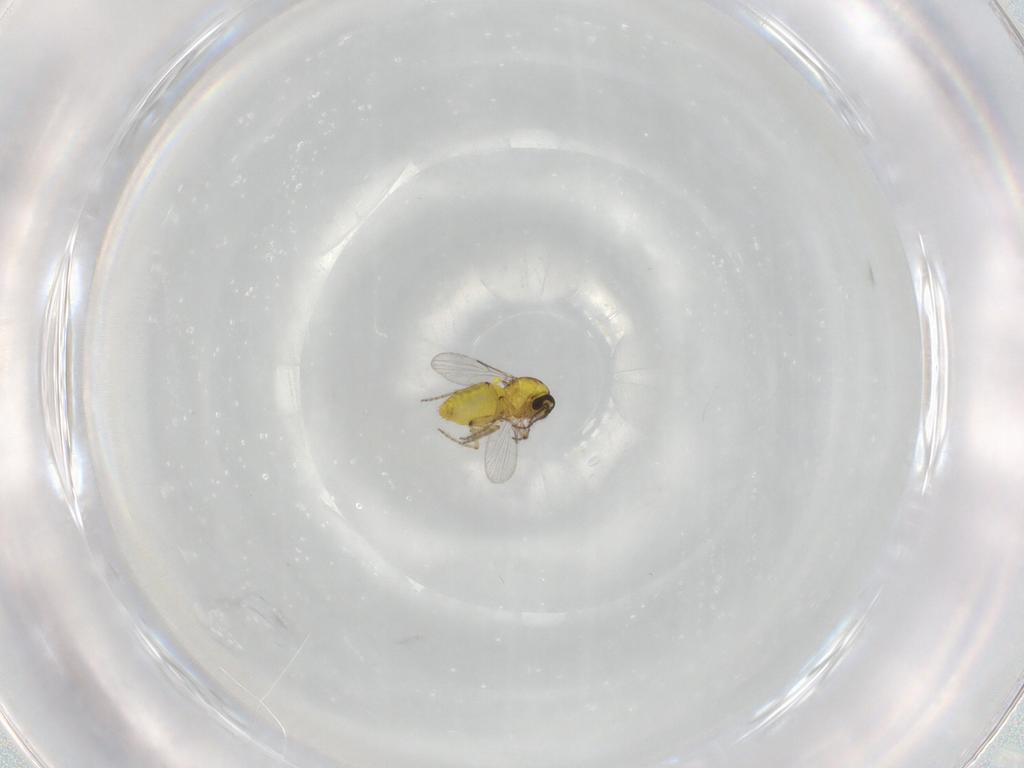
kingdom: Animalia
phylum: Arthropoda
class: Insecta
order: Diptera
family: Ceratopogonidae
